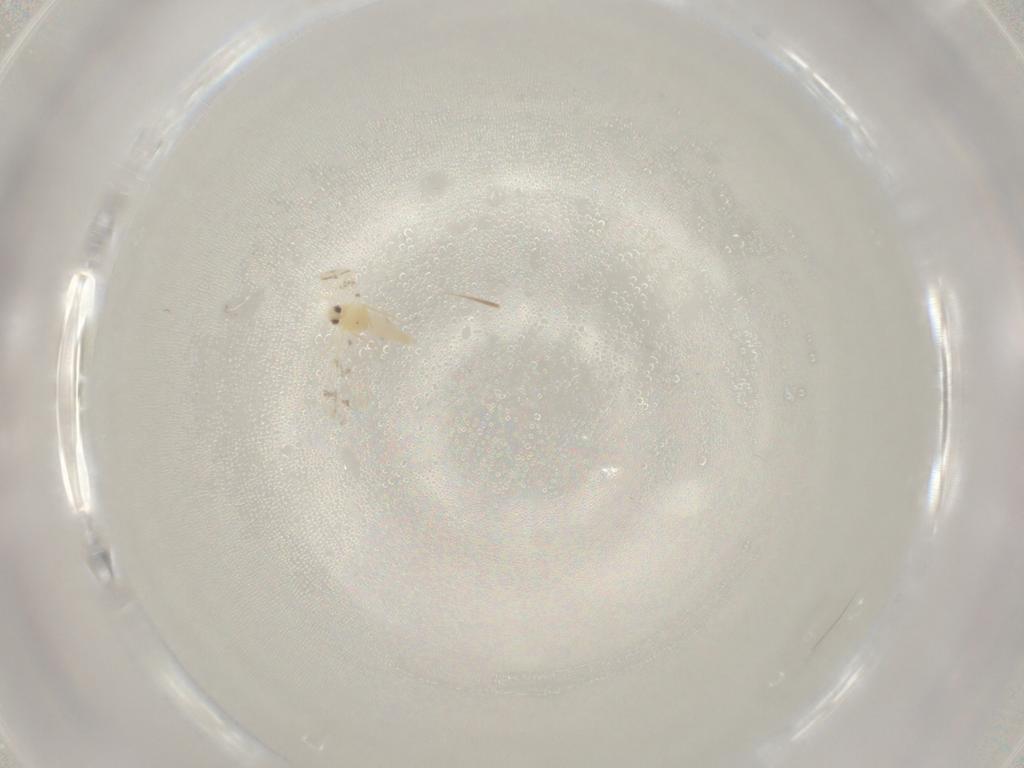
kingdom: Animalia
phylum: Arthropoda
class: Insecta
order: Hemiptera
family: Aleyrodidae
